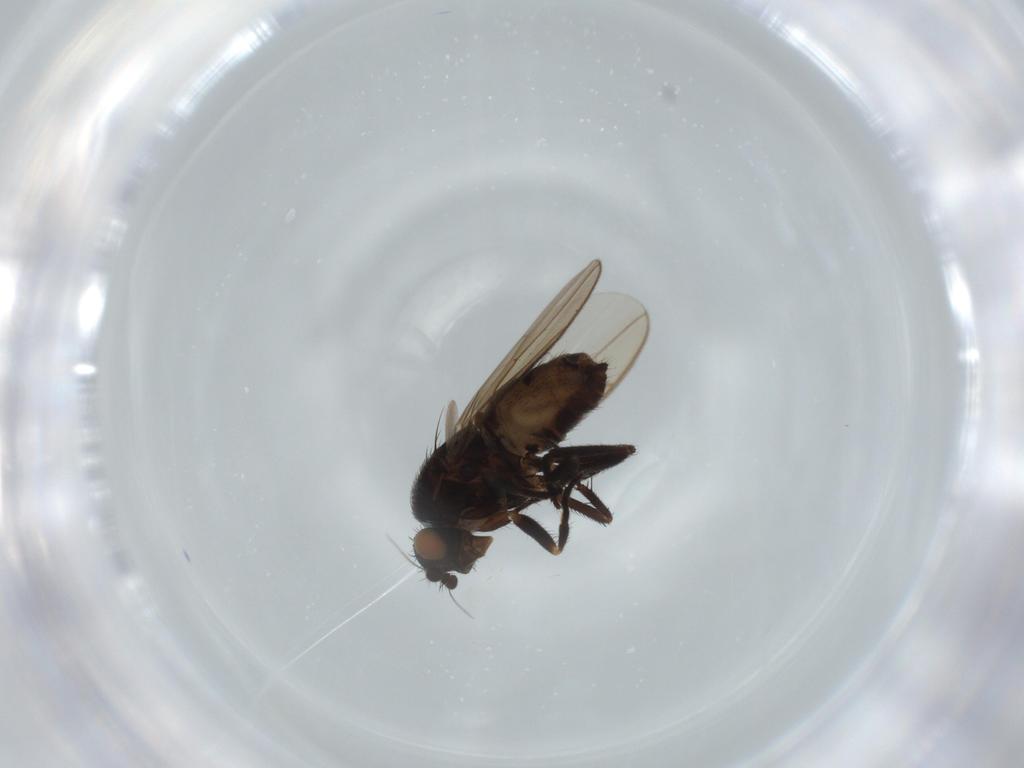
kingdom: Animalia
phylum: Arthropoda
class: Insecta
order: Diptera
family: Sphaeroceridae
